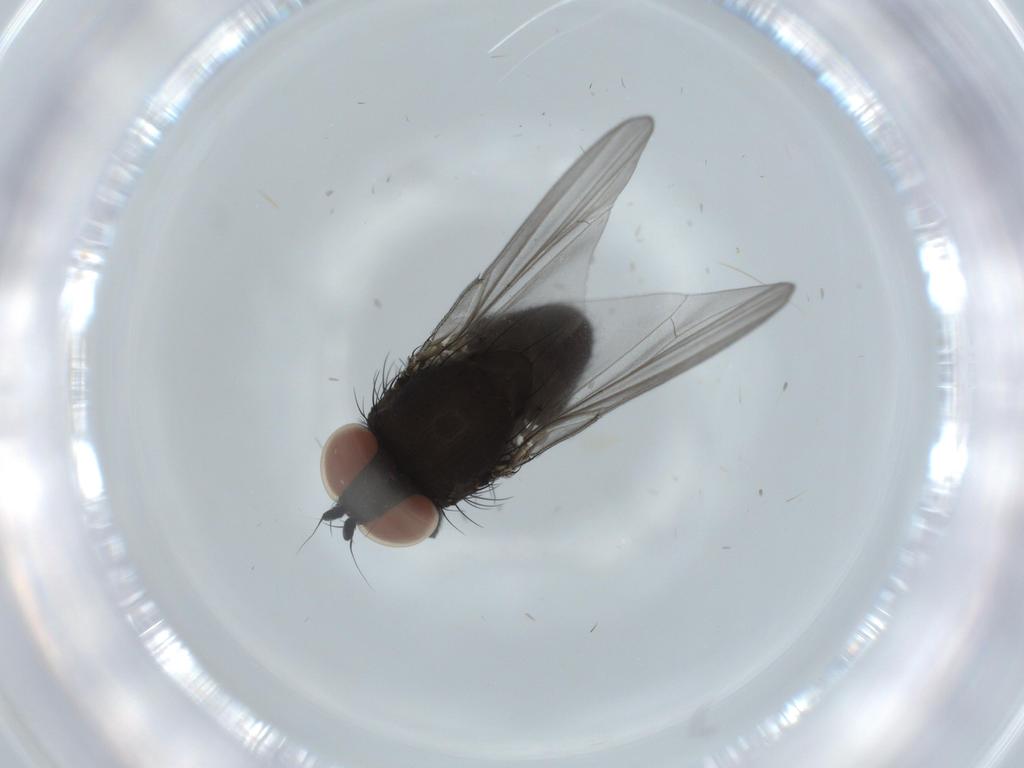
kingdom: Animalia
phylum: Arthropoda
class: Insecta
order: Diptera
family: Milichiidae
